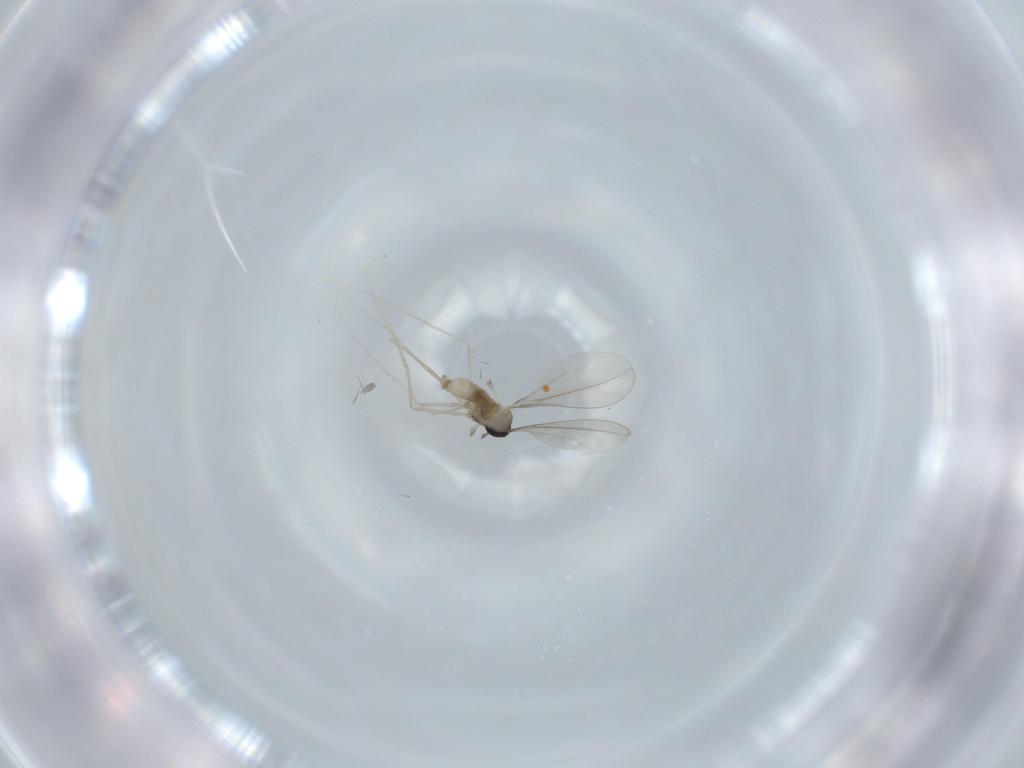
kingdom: Animalia
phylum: Arthropoda
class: Insecta
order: Diptera
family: Cecidomyiidae
